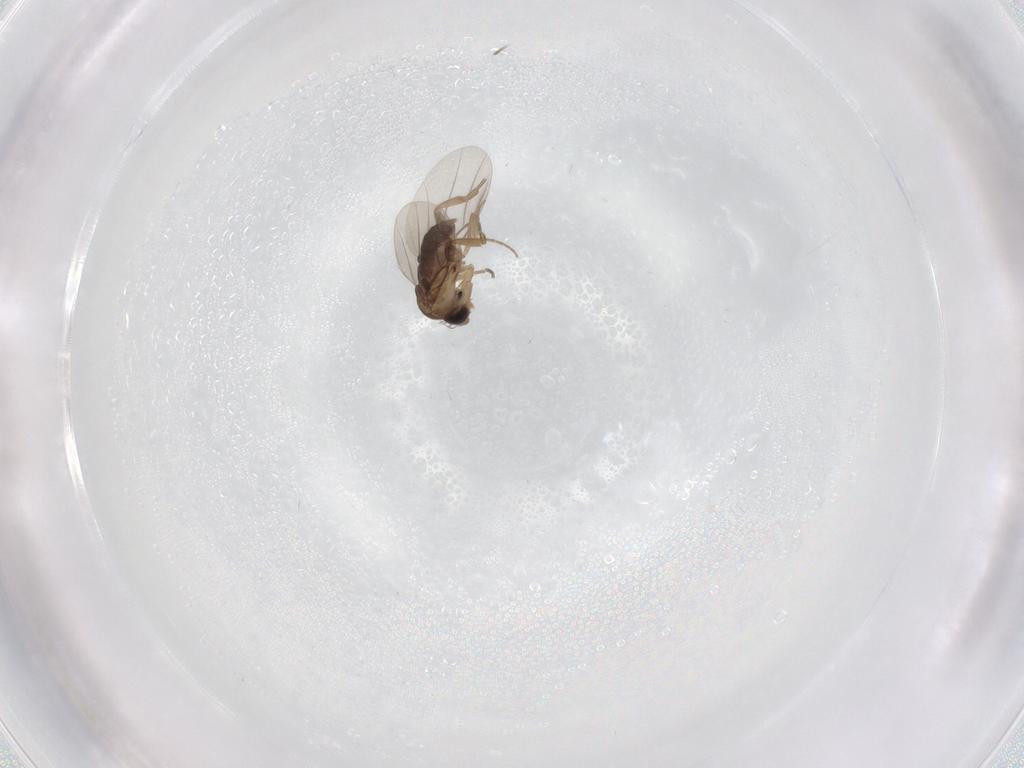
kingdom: Animalia
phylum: Arthropoda
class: Insecta
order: Diptera
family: Phoridae
